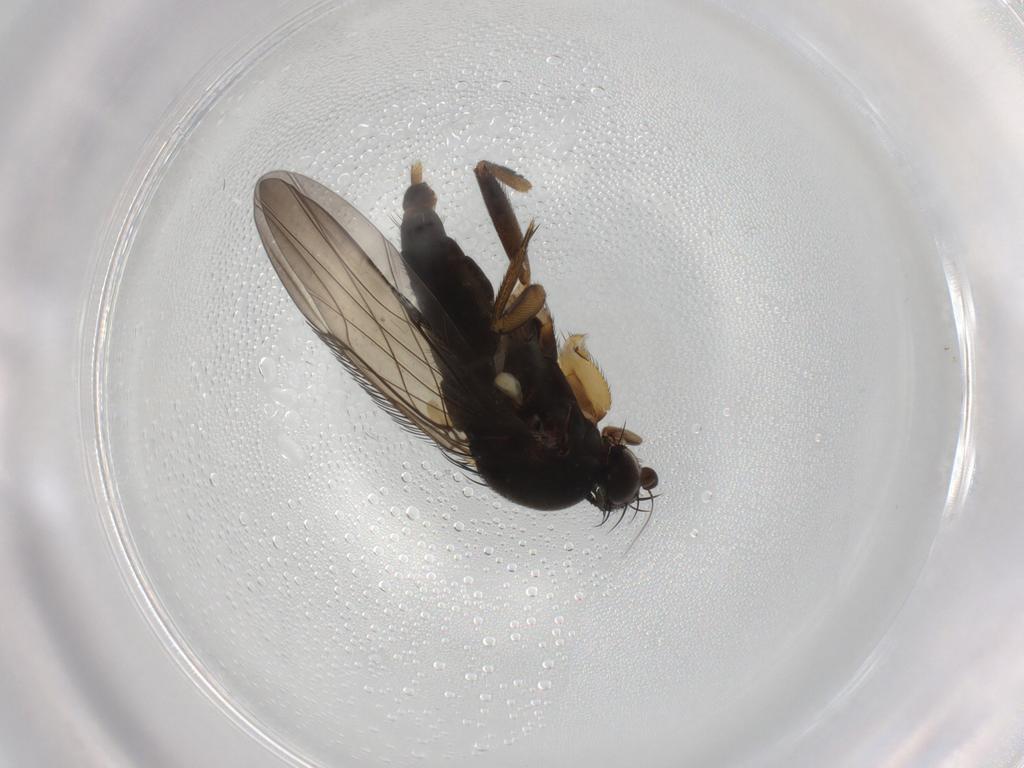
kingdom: Animalia
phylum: Arthropoda
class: Insecta
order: Diptera
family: Phoridae
